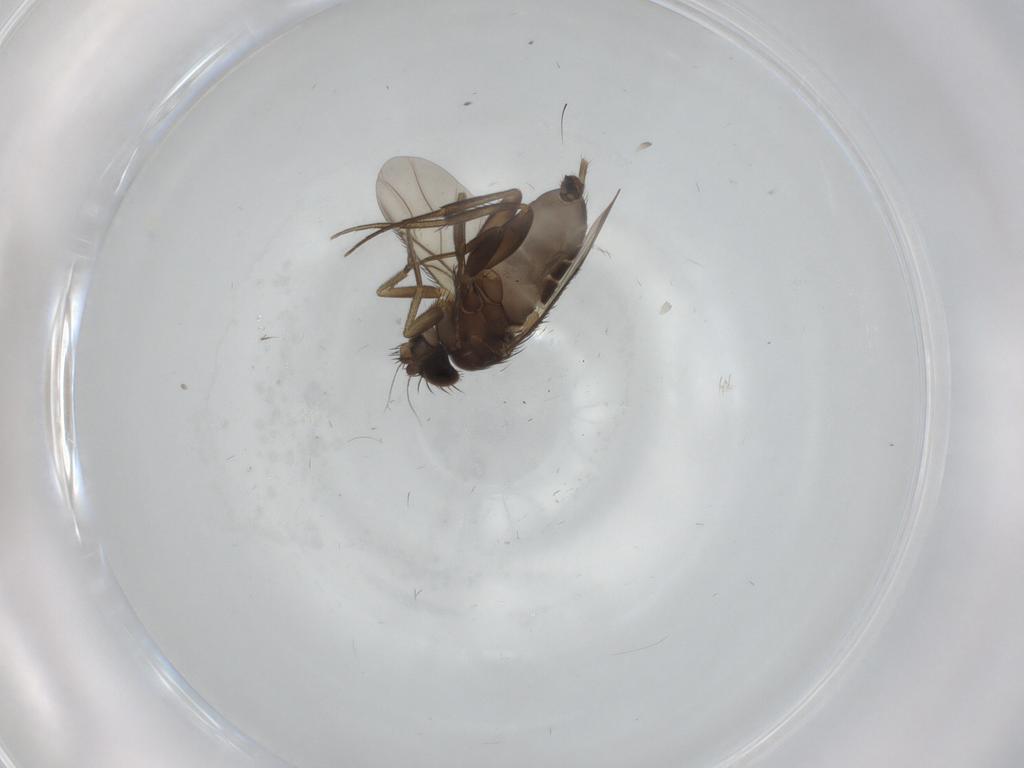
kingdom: Animalia
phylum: Arthropoda
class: Insecta
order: Diptera
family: Phoridae
